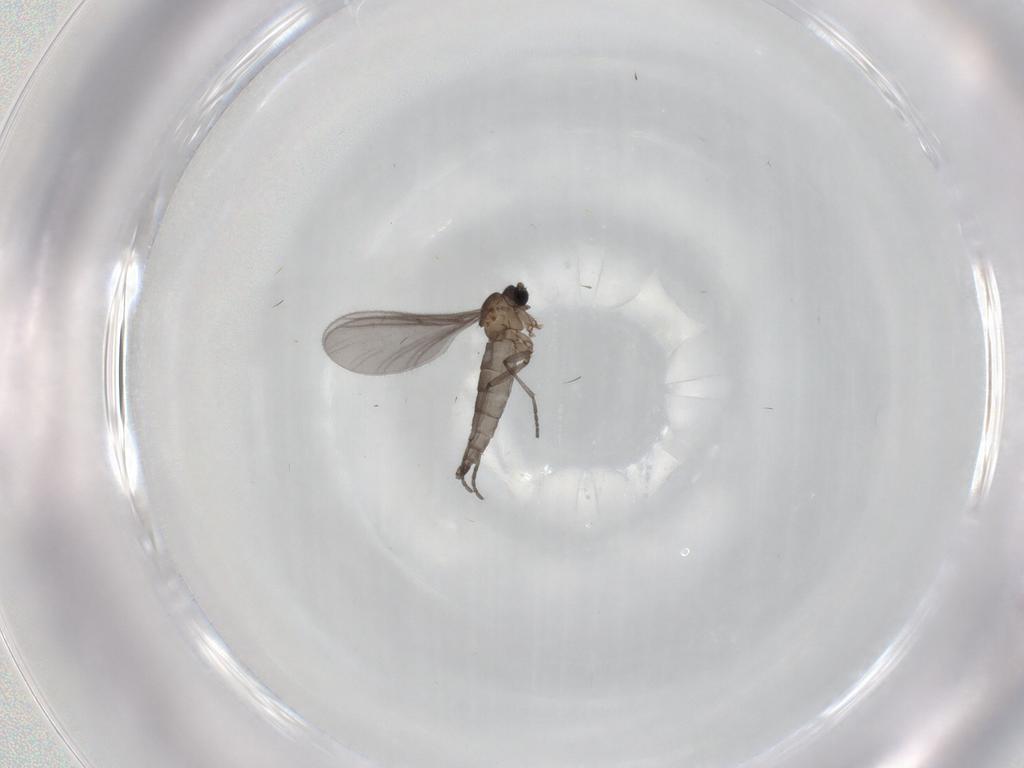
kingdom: Animalia
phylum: Arthropoda
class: Insecta
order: Diptera
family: Sciaridae
